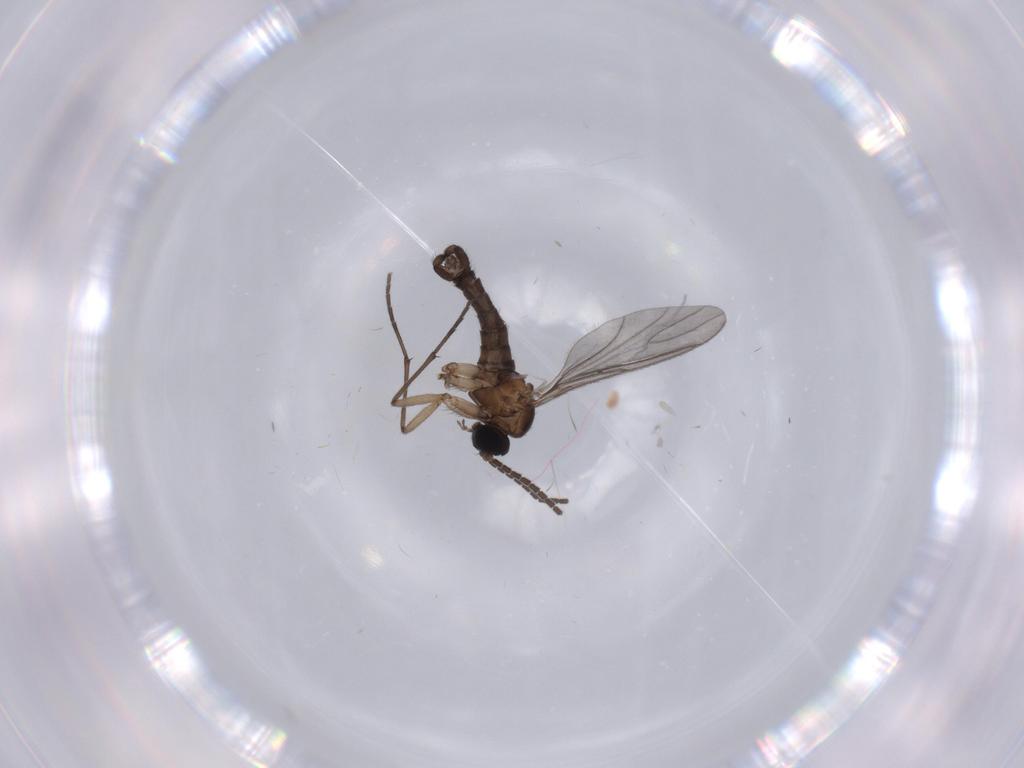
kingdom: Animalia
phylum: Arthropoda
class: Insecta
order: Diptera
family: Sciaridae
